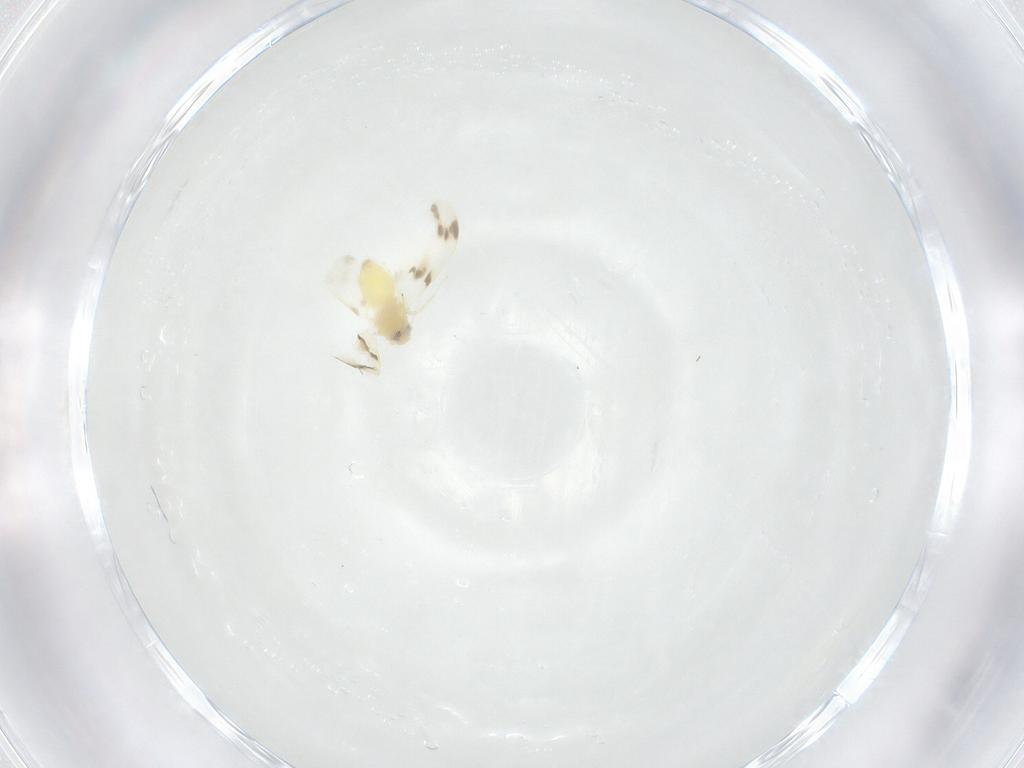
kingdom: Animalia
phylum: Arthropoda
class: Insecta
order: Hemiptera
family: Aleyrodidae
